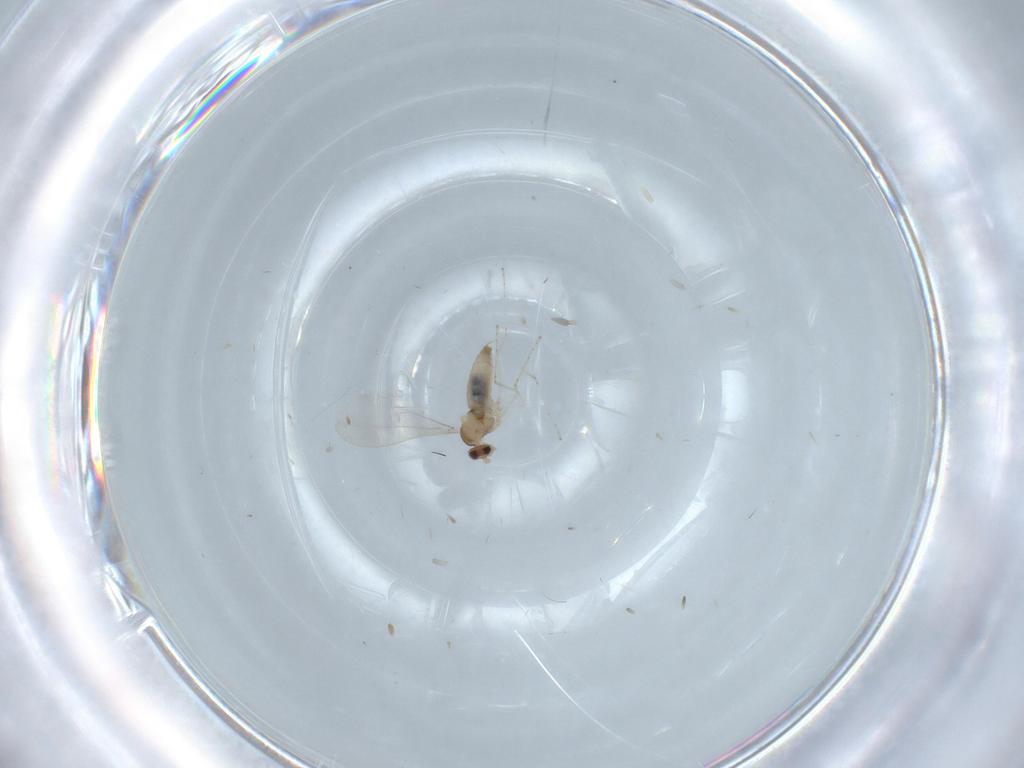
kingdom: Animalia
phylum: Arthropoda
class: Insecta
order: Diptera
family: Cecidomyiidae
